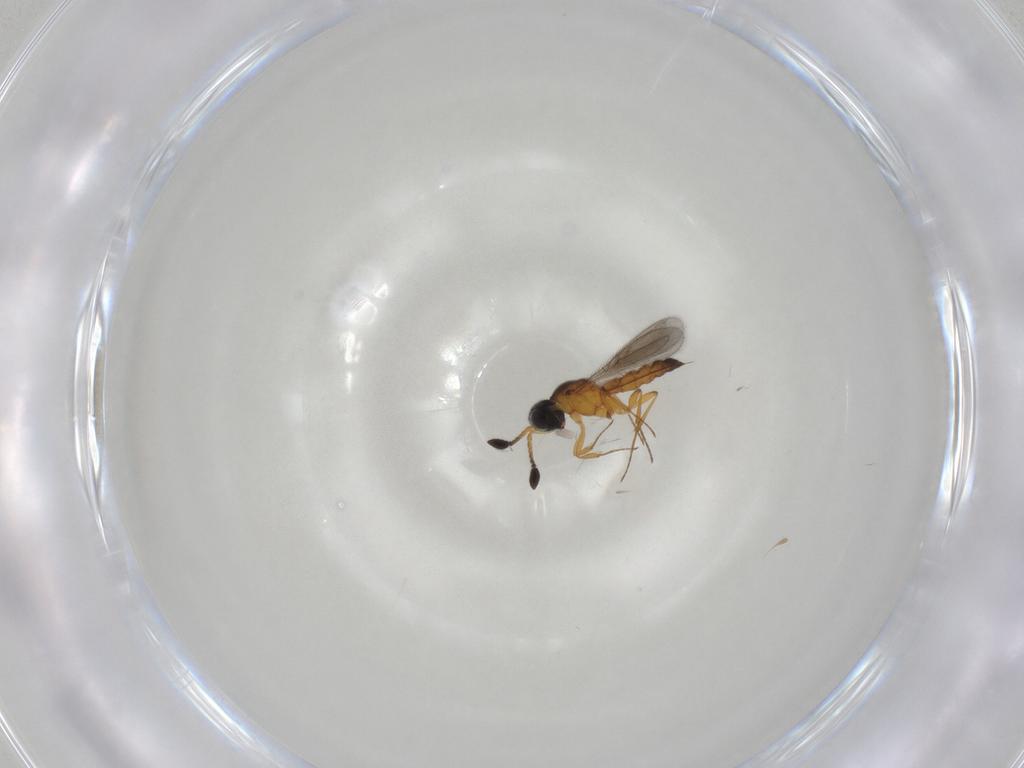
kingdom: Animalia
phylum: Arthropoda
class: Insecta
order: Hymenoptera
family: Scelionidae
